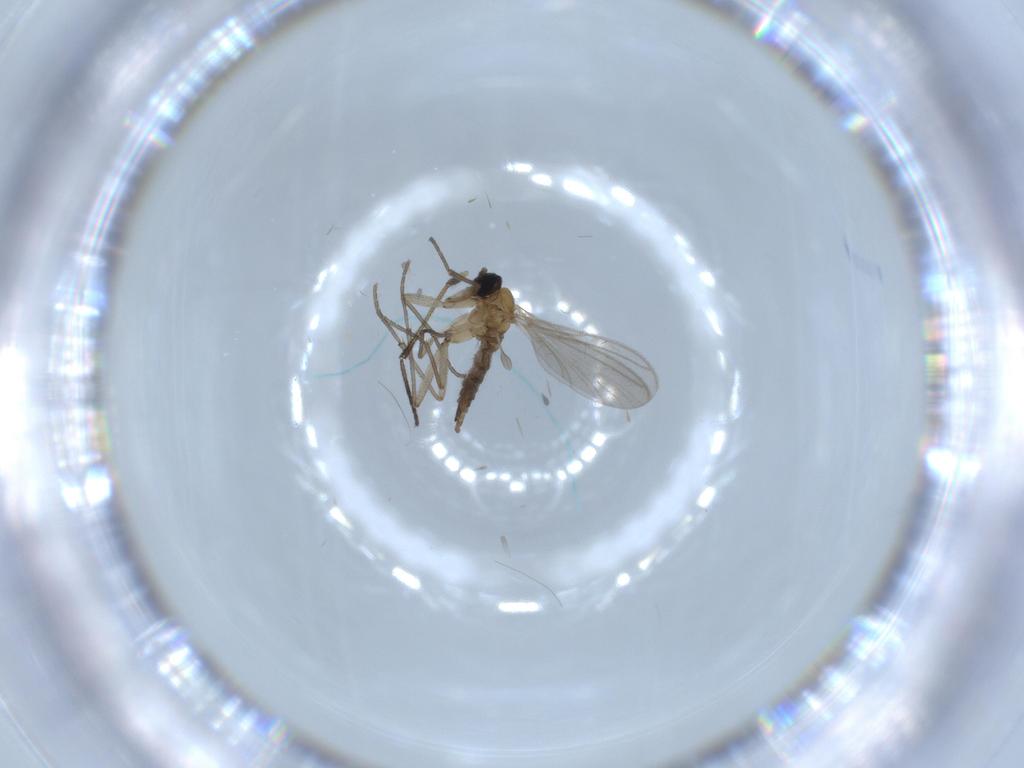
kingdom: Animalia
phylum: Arthropoda
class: Insecta
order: Diptera
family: Sciaridae
